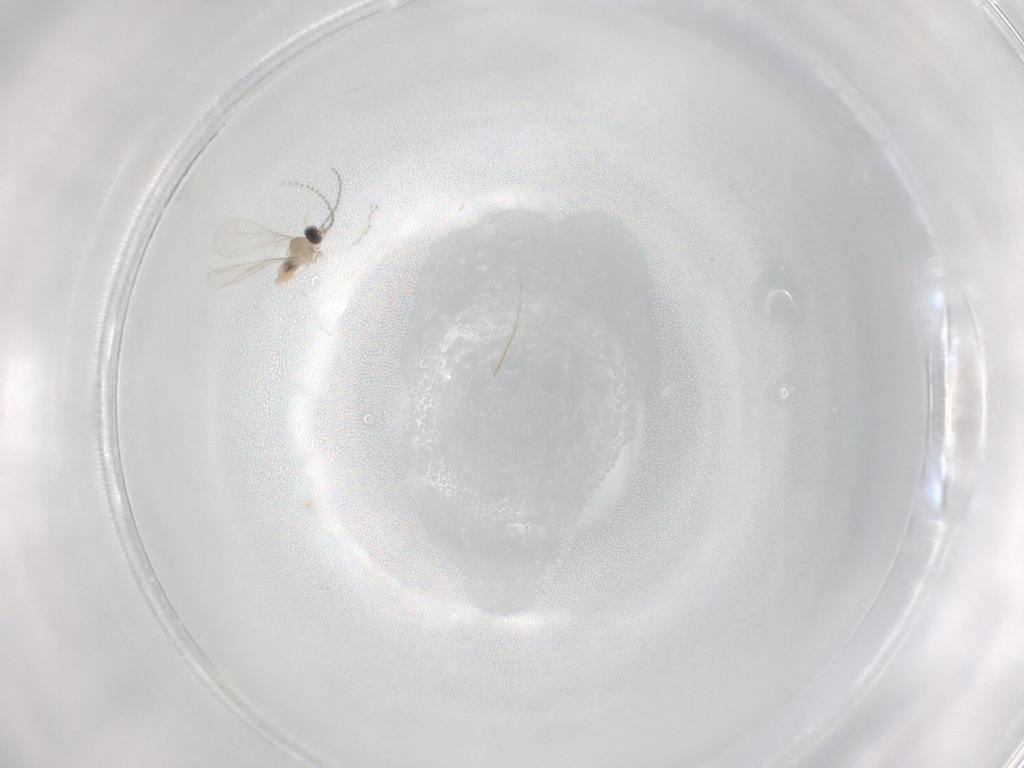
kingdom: Animalia
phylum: Arthropoda
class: Insecta
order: Diptera
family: Cecidomyiidae
